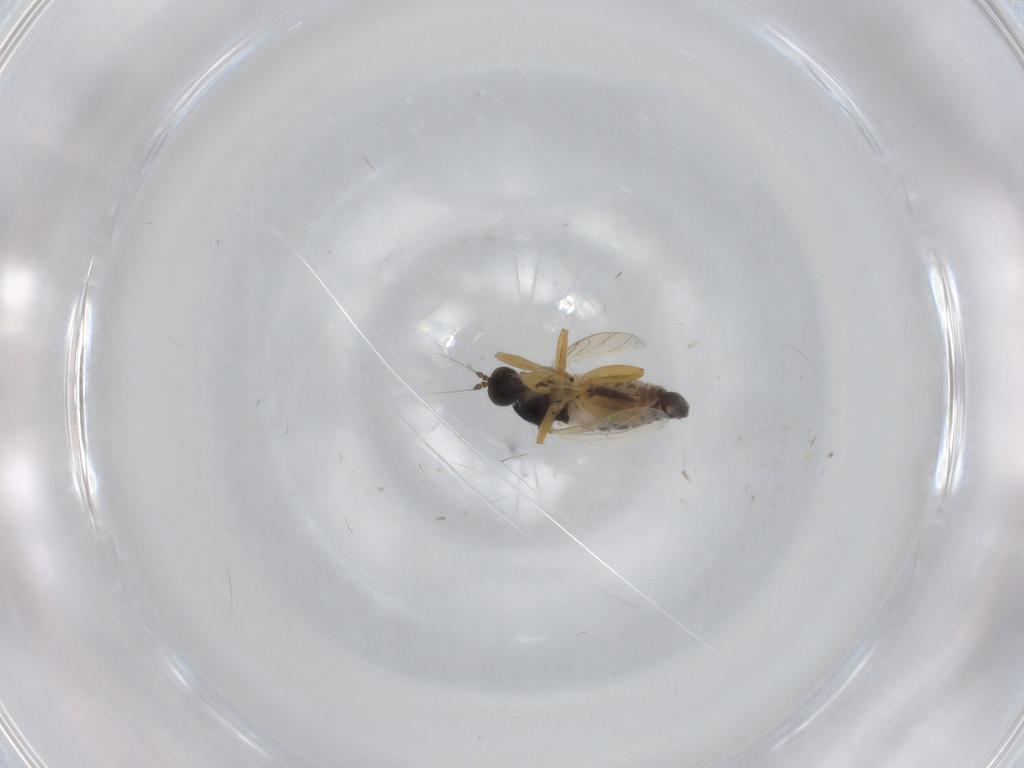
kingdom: Animalia
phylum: Arthropoda
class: Insecta
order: Diptera
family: Hybotidae
